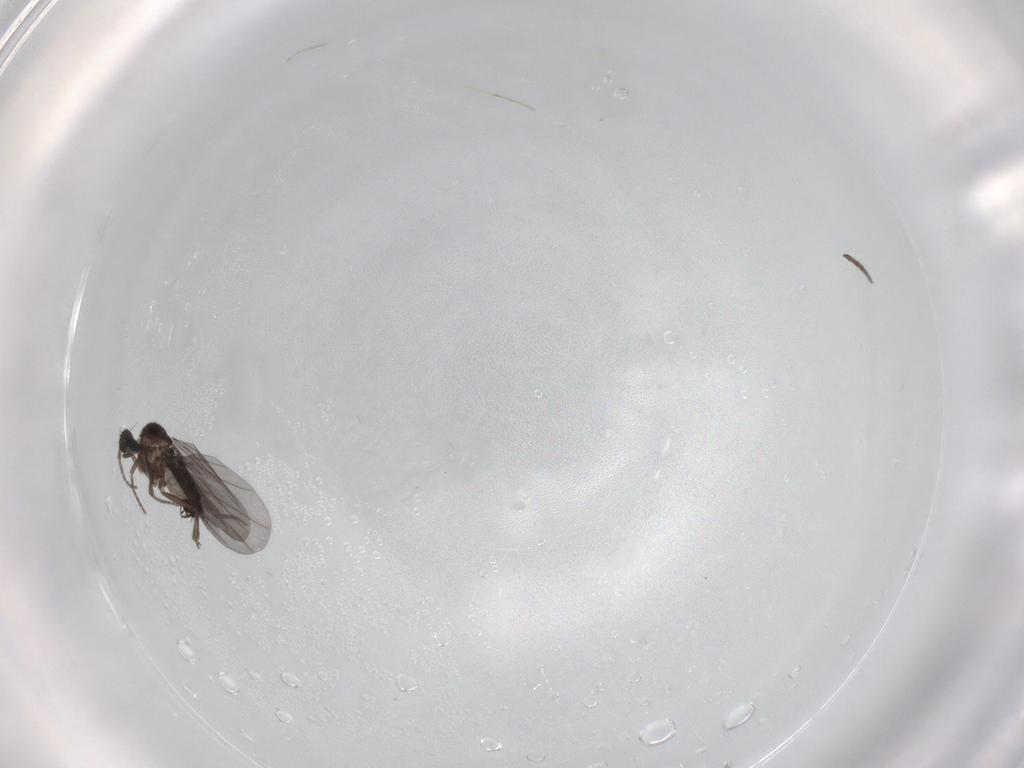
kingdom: Animalia
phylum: Arthropoda
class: Insecta
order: Diptera
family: Phoridae
